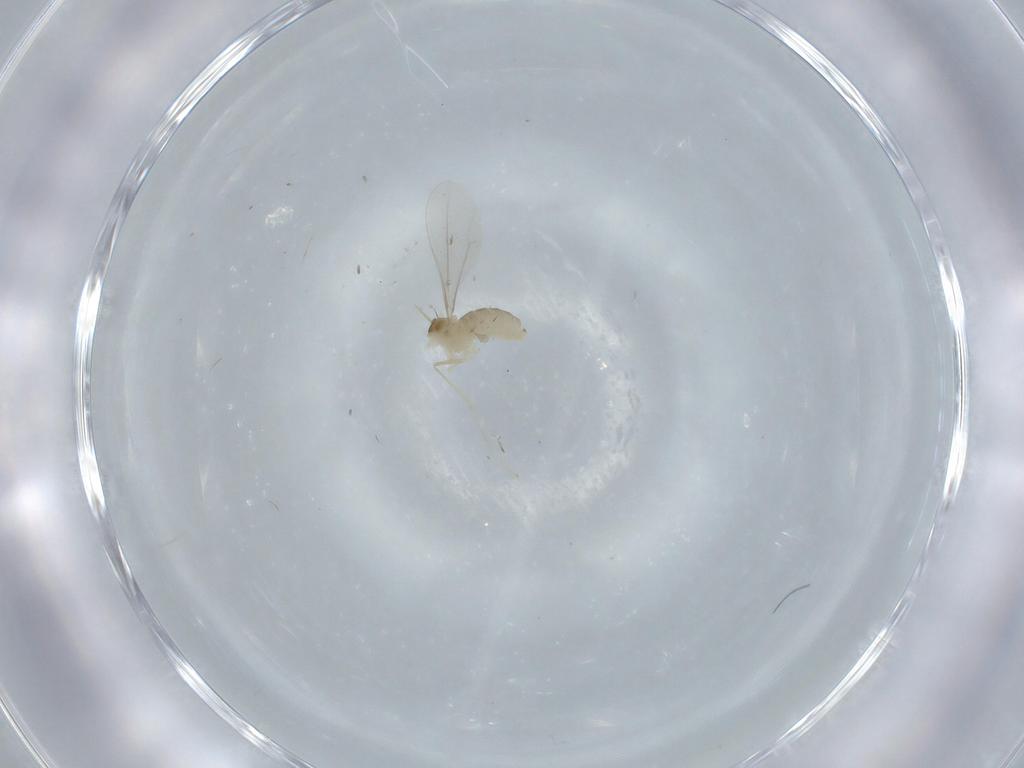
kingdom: Animalia
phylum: Arthropoda
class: Insecta
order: Diptera
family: Cecidomyiidae
